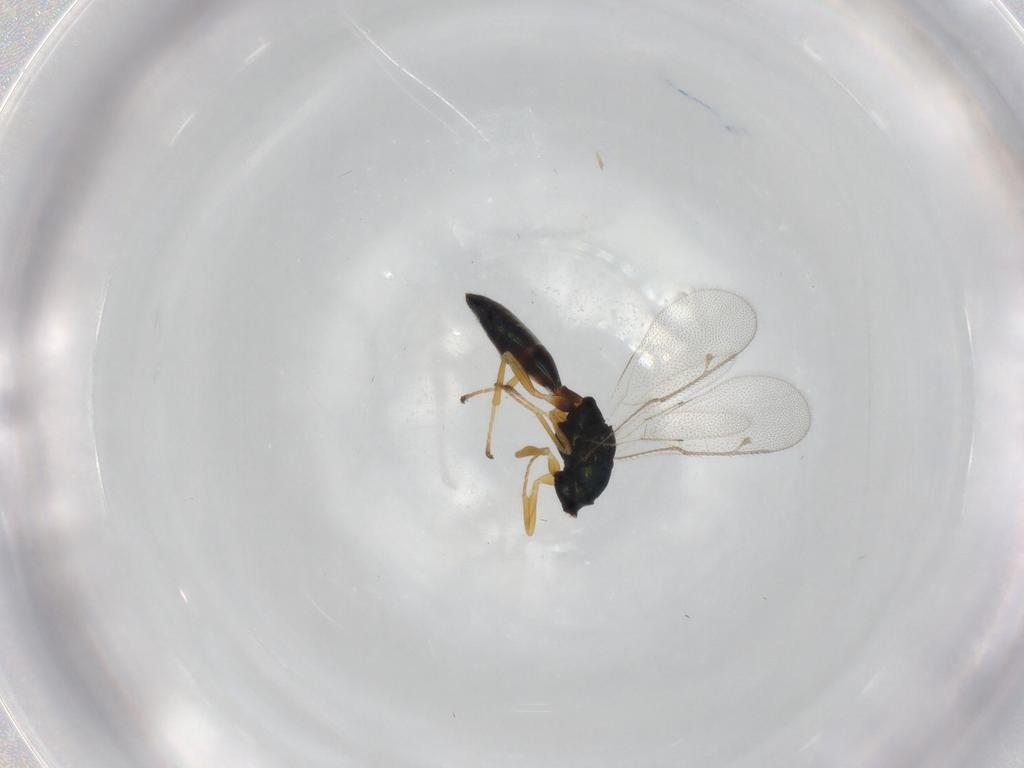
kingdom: Animalia
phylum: Arthropoda
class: Insecta
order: Hymenoptera
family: Pteromalidae
